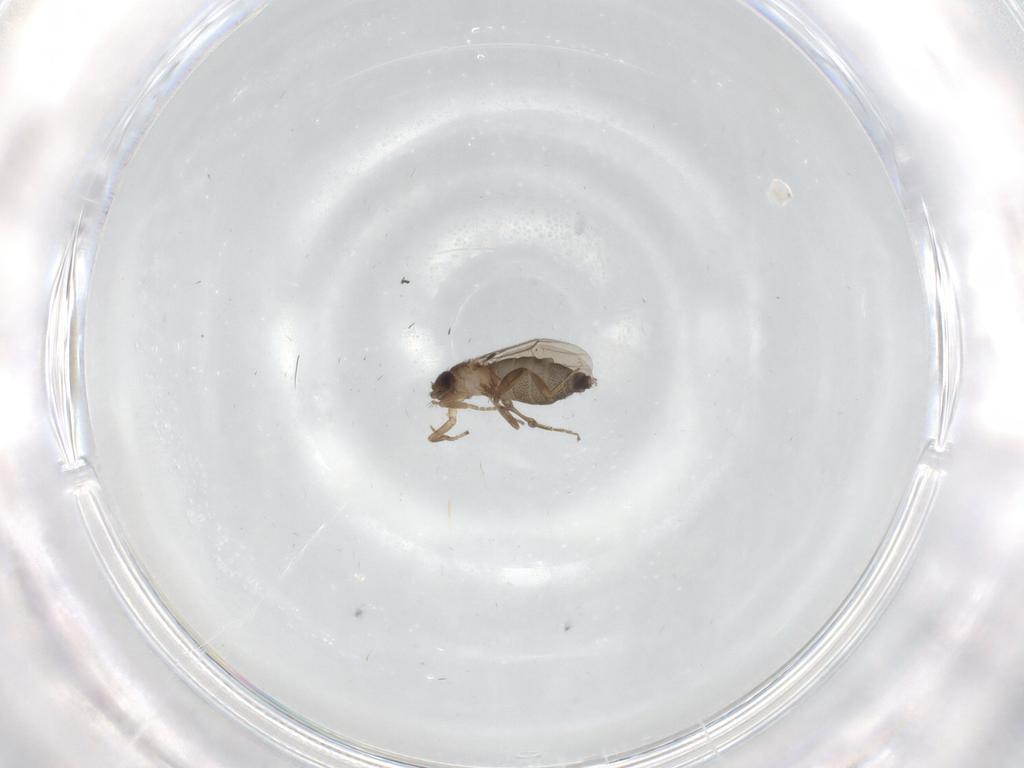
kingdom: Animalia
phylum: Arthropoda
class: Insecta
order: Diptera
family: Phoridae
